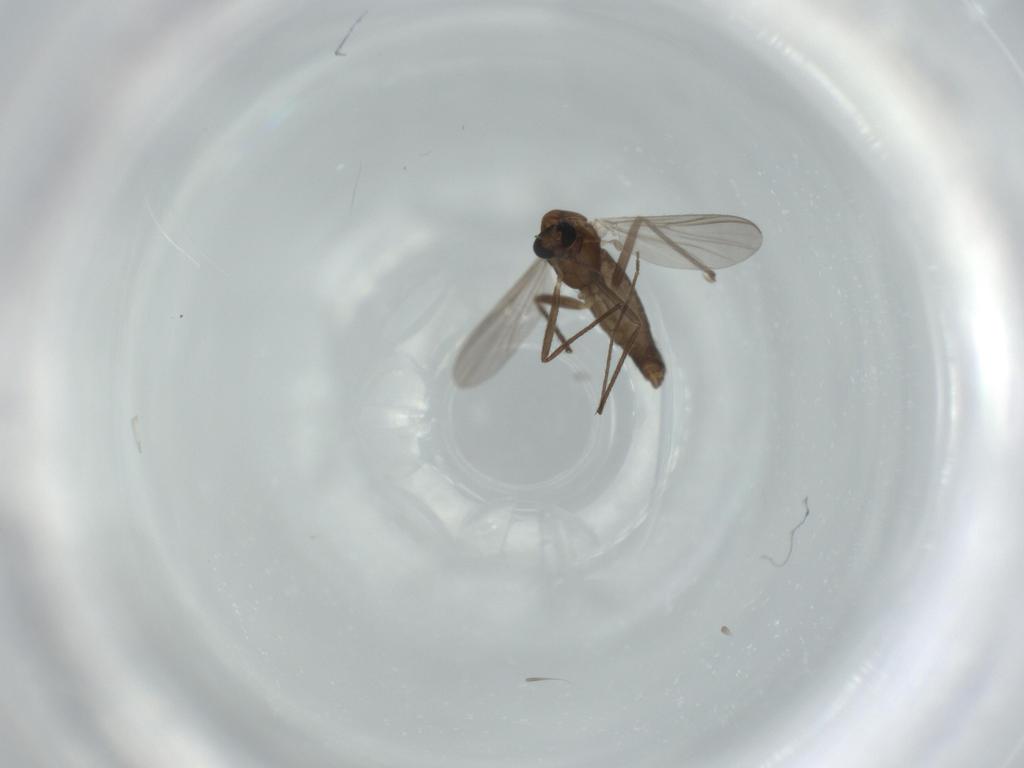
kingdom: Animalia
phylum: Arthropoda
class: Insecta
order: Diptera
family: Chironomidae
